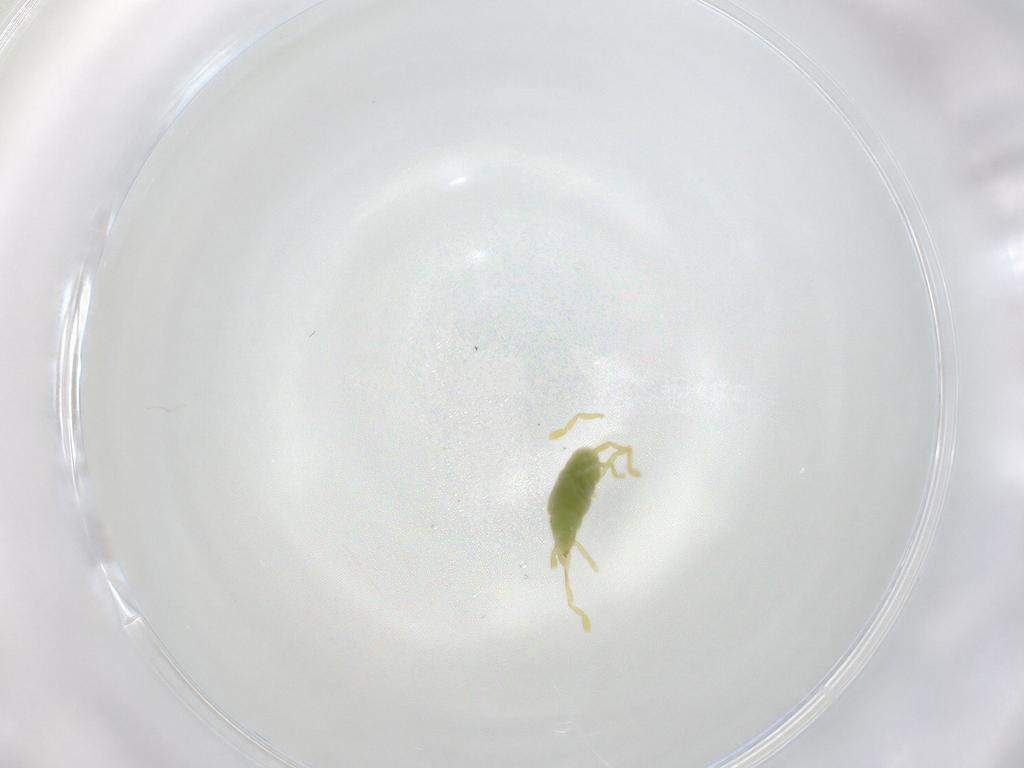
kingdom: Animalia
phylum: Arthropoda
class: Arachnida
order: Trombidiformes
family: Erythraeidae
